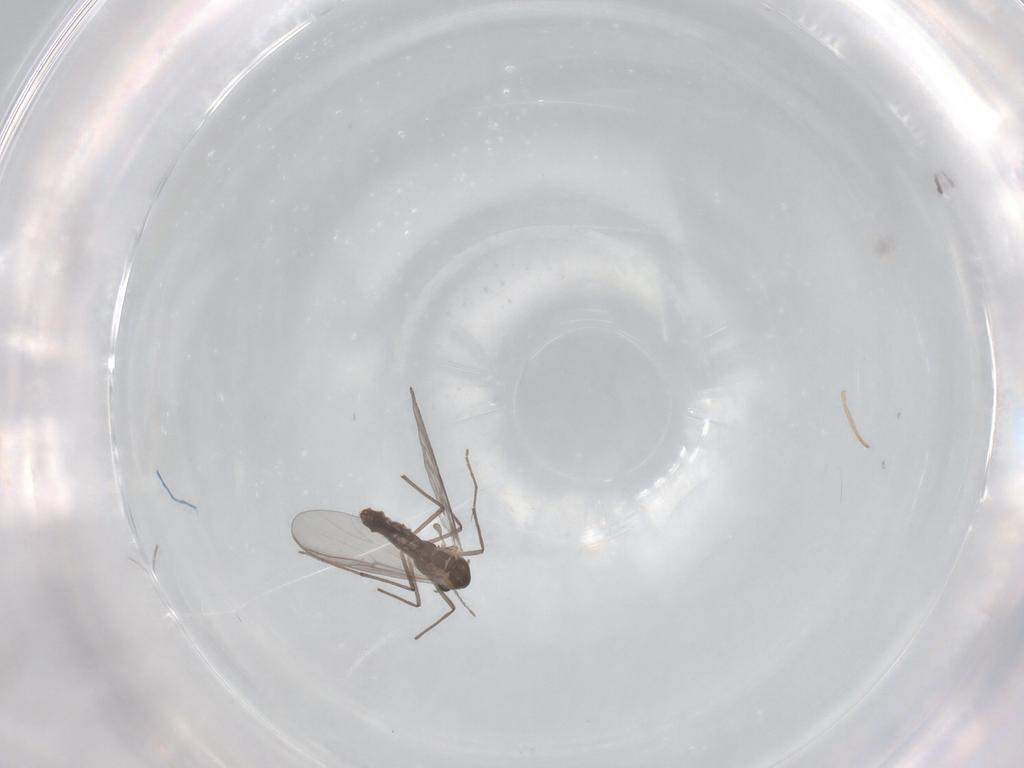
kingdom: Animalia
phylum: Arthropoda
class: Insecta
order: Diptera
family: Chironomidae
